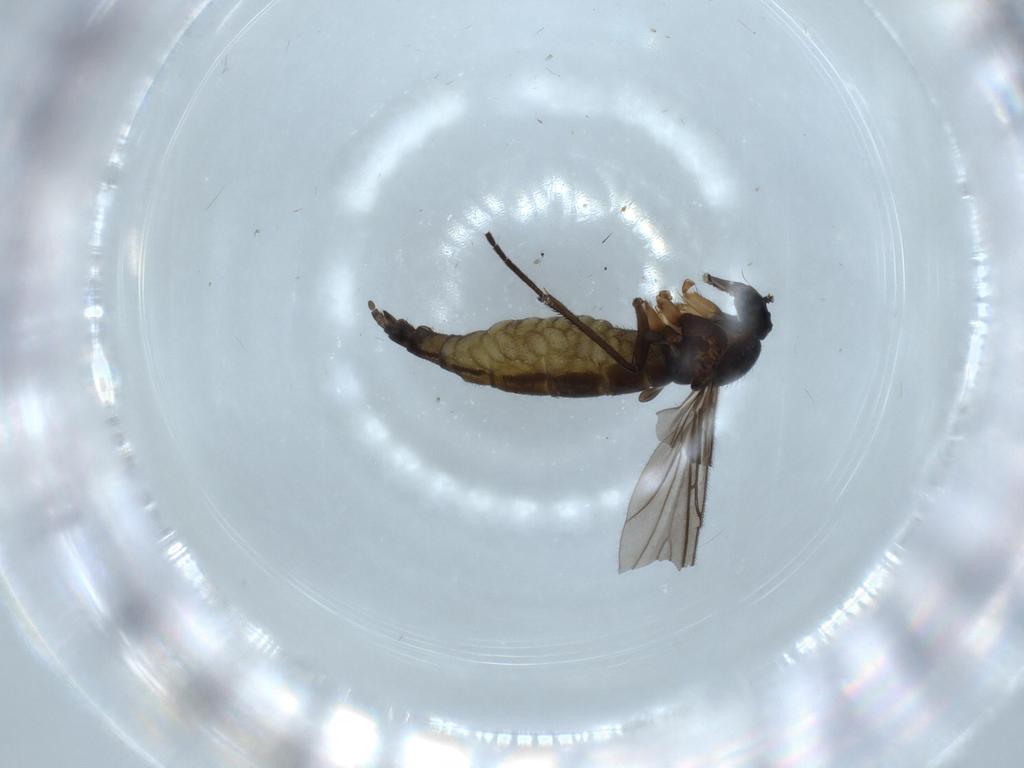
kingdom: Animalia
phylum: Arthropoda
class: Insecta
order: Diptera
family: Sciaridae
